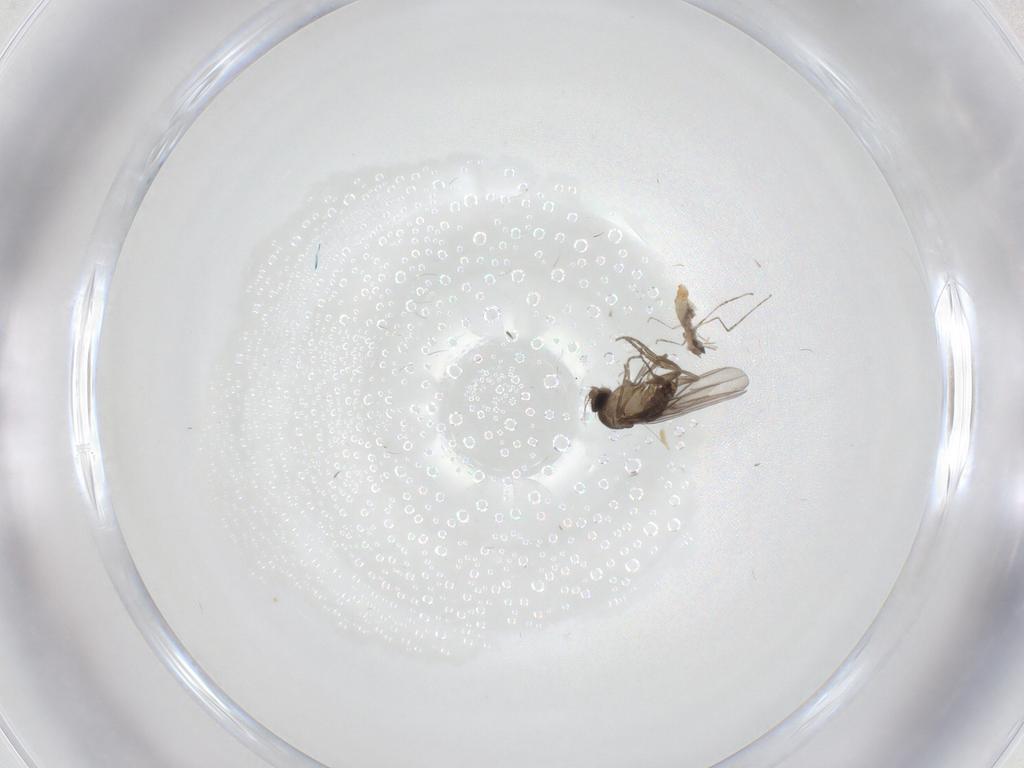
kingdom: Animalia
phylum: Arthropoda
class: Insecta
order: Diptera
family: Cecidomyiidae
